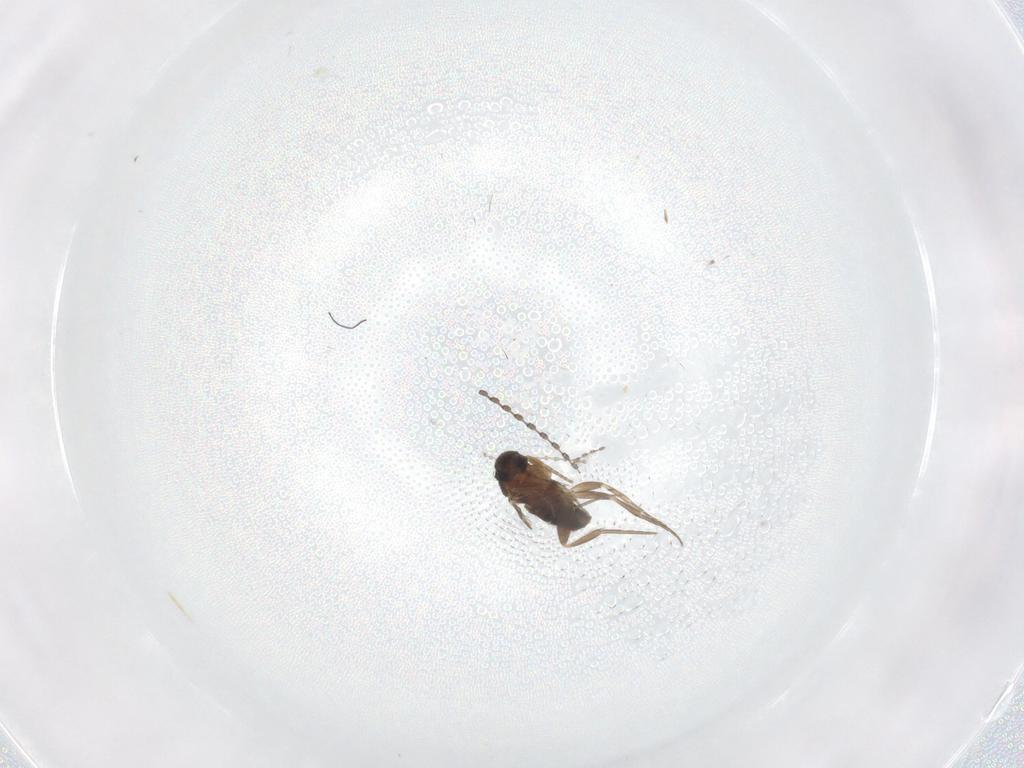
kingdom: Animalia
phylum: Arthropoda
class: Insecta
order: Diptera
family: Phoridae
